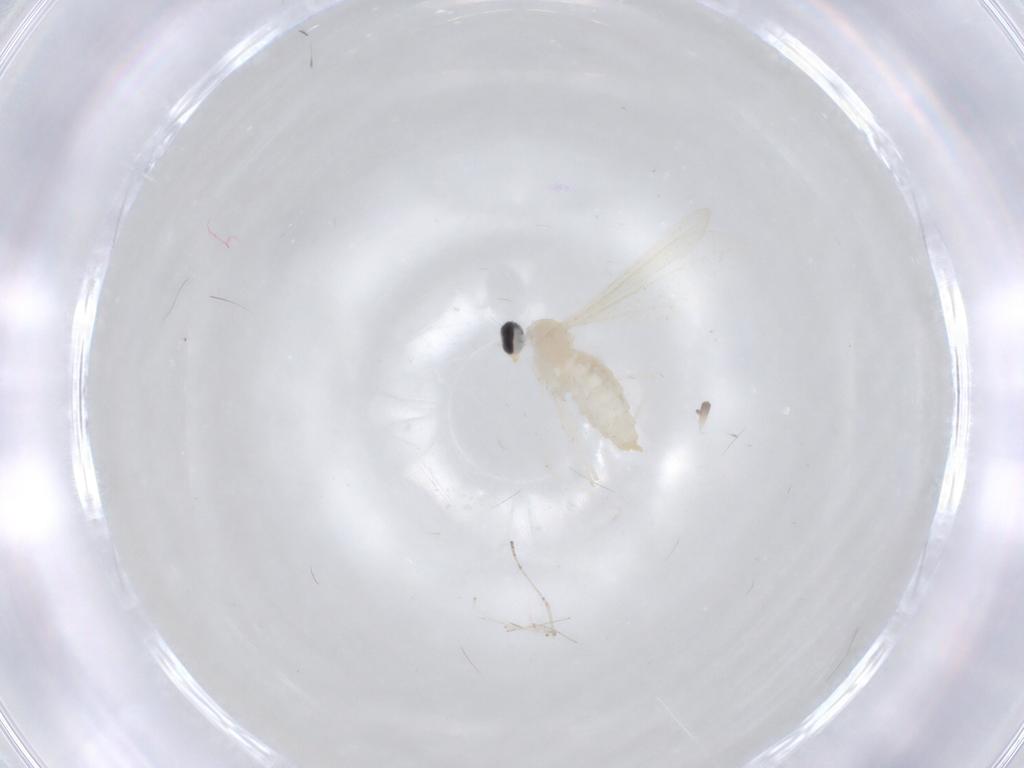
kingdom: Animalia
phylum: Arthropoda
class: Insecta
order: Diptera
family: Cecidomyiidae
